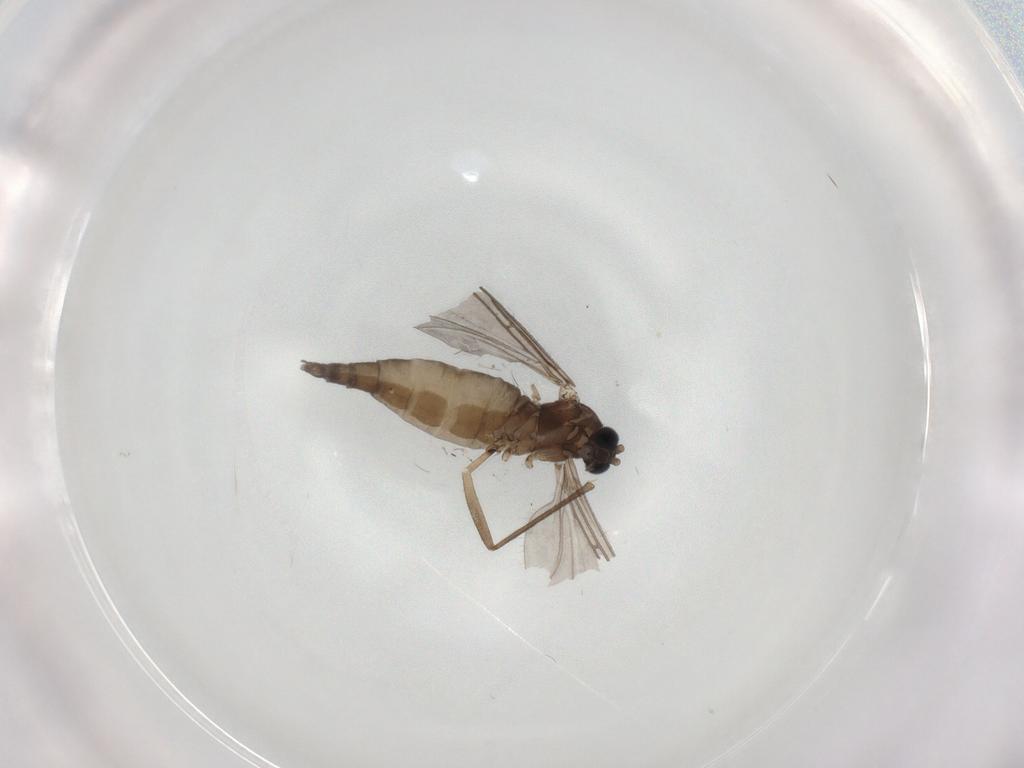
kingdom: Animalia
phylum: Arthropoda
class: Insecta
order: Diptera
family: Sciaridae
